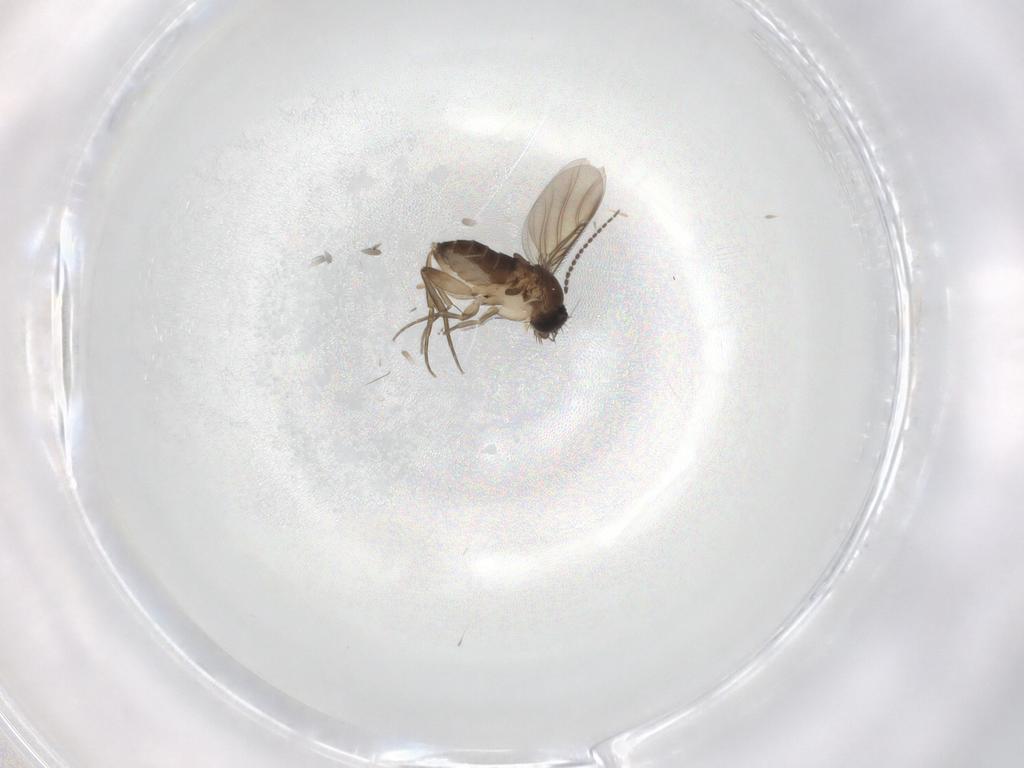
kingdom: Animalia
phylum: Arthropoda
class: Insecta
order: Diptera
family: Phoridae
